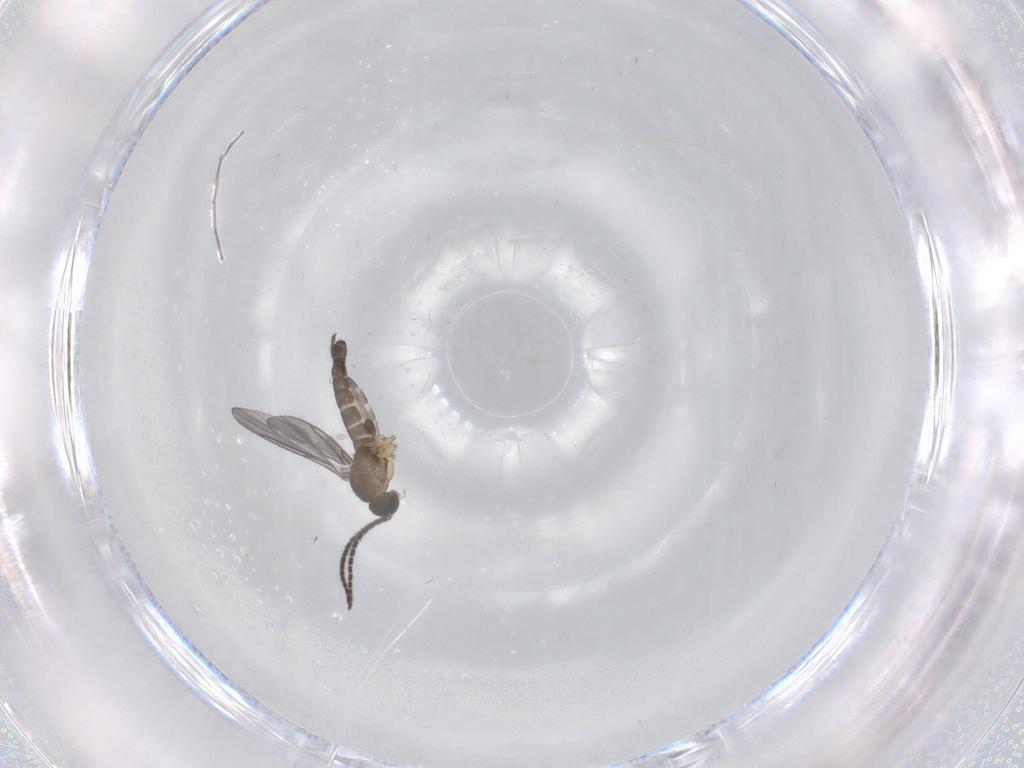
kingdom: Animalia
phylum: Arthropoda
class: Insecta
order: Diptera
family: Sciaridae
